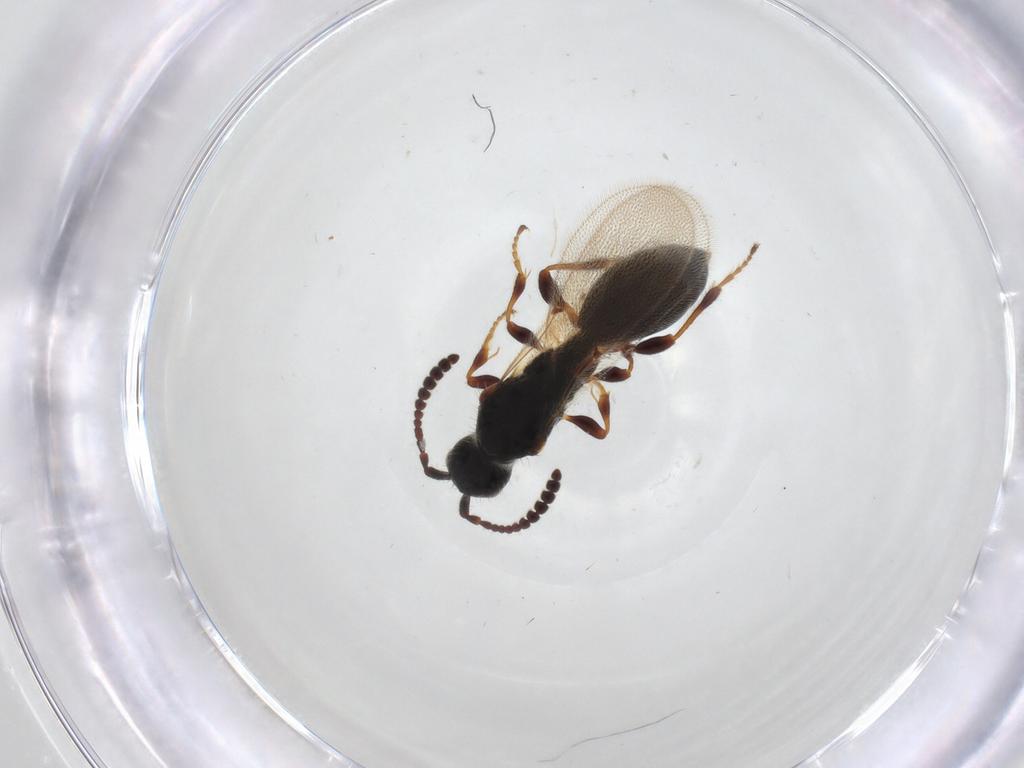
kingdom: Animalia
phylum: Arthropoda
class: Insecta
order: Hymenoptera
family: Diapriidae
